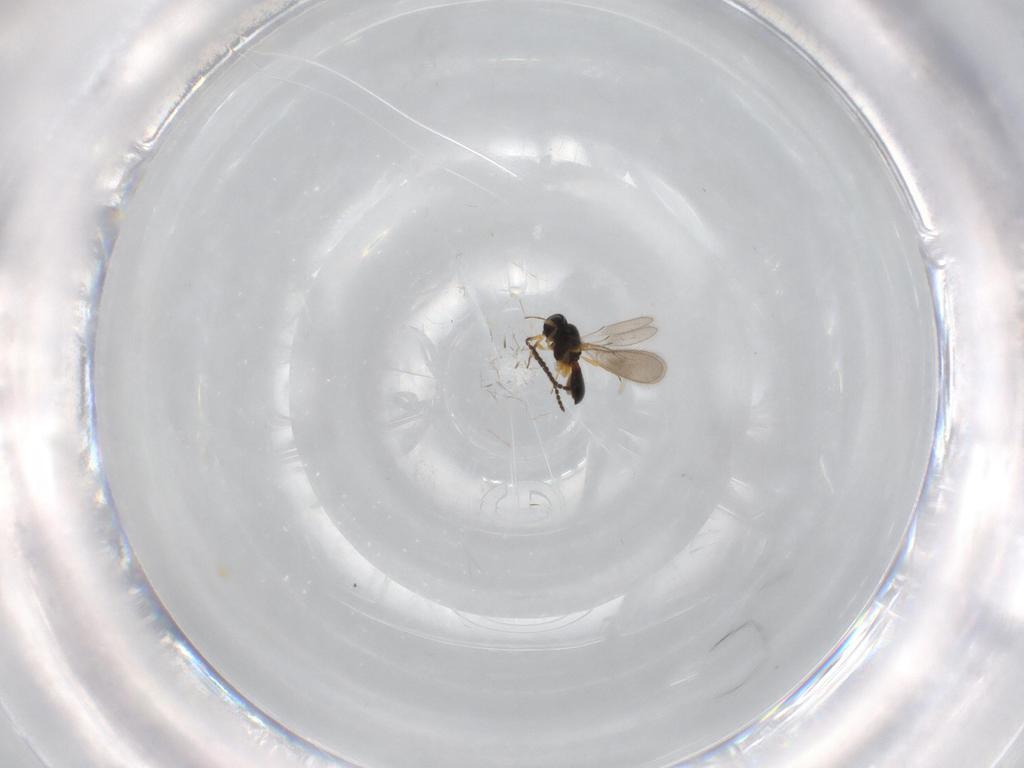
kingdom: Animalia
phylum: Arthropoda
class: Insecta
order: Hymenoptera
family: Scelionidae
